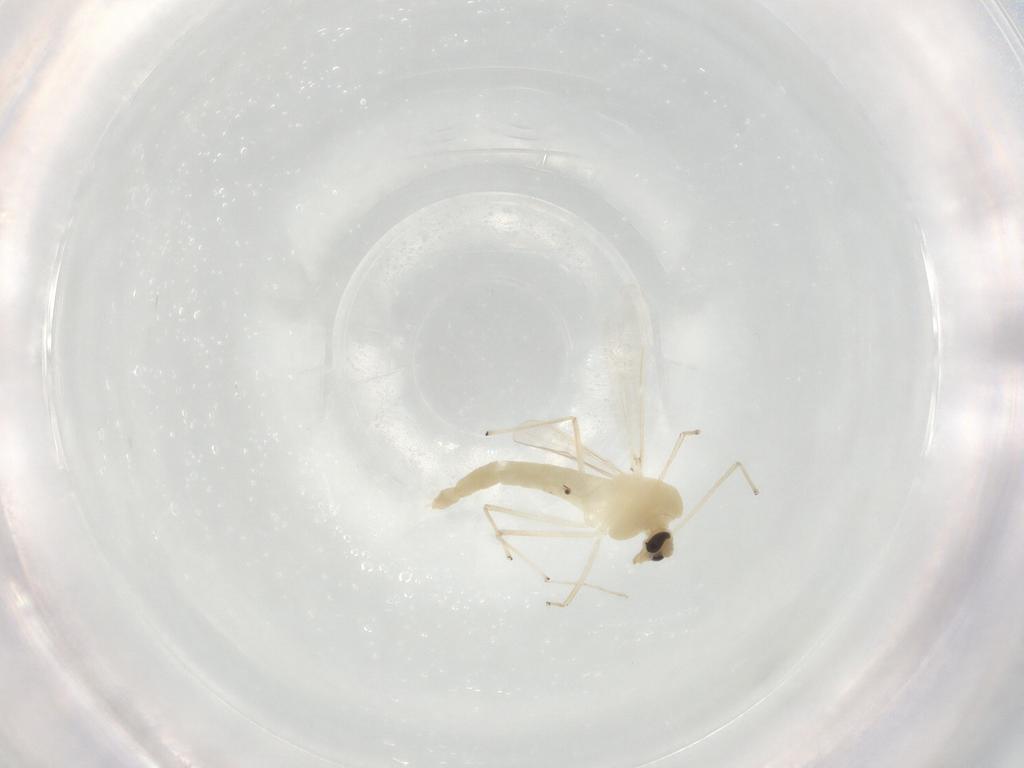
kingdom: Animalia
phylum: Arthropoda
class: Insecta
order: Diptera
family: Chironomidae
